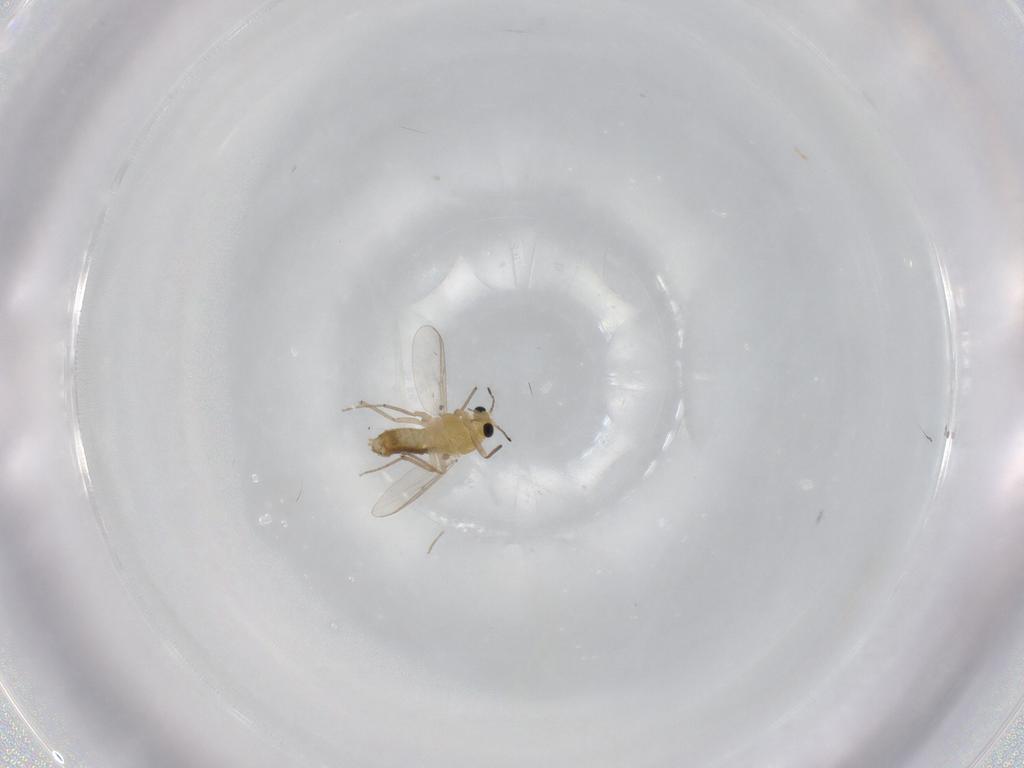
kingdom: Animalia
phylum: Arthropoda
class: Insecta
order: Diptera
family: Chironomidae
